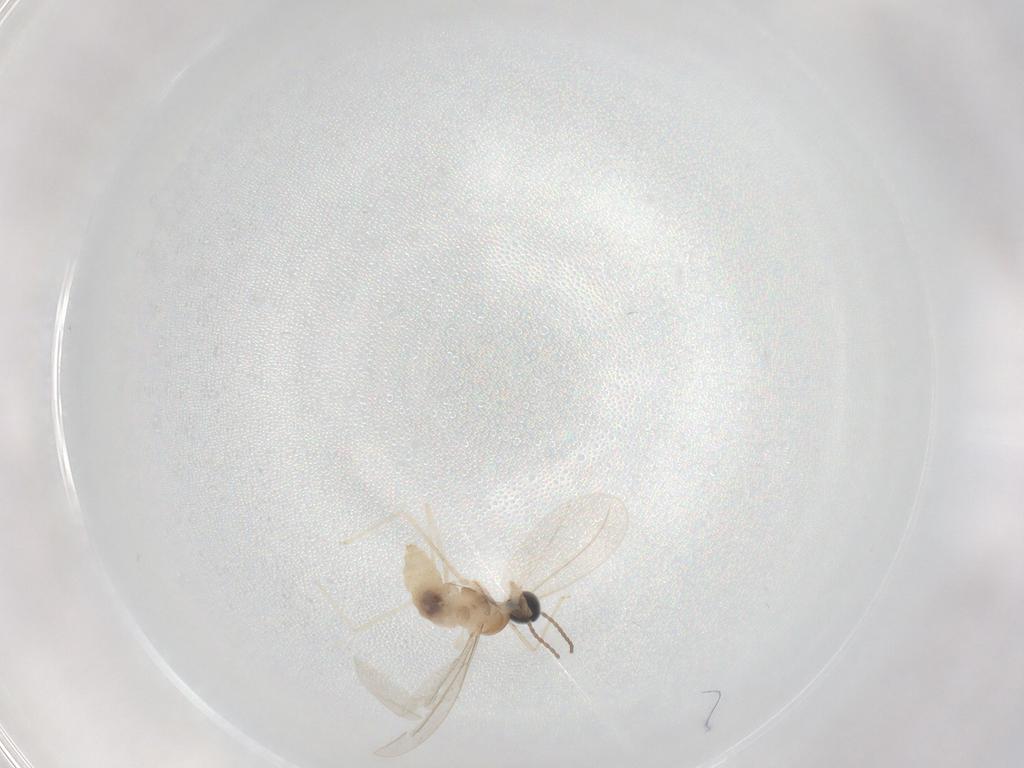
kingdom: Animalia
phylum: Arthropoda
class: Insecta
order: Diptera
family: Cecidomyiidae
